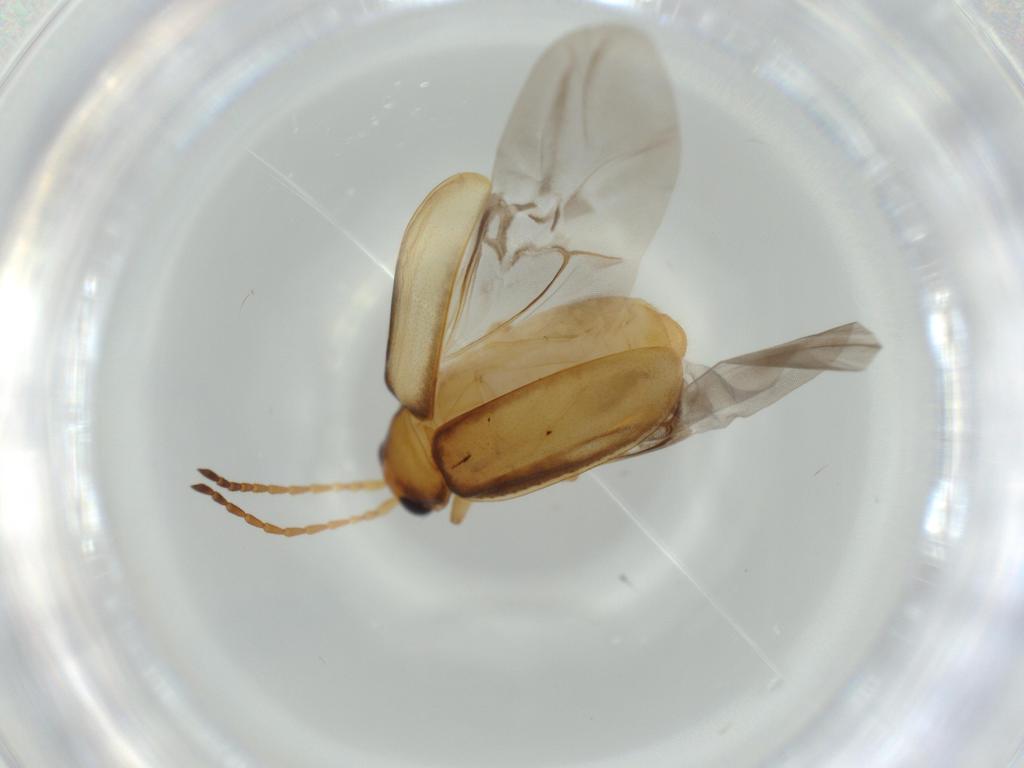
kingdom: Animalia
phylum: Arthropoda
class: Insecta
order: Coleoptera
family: Chrysomelidae
